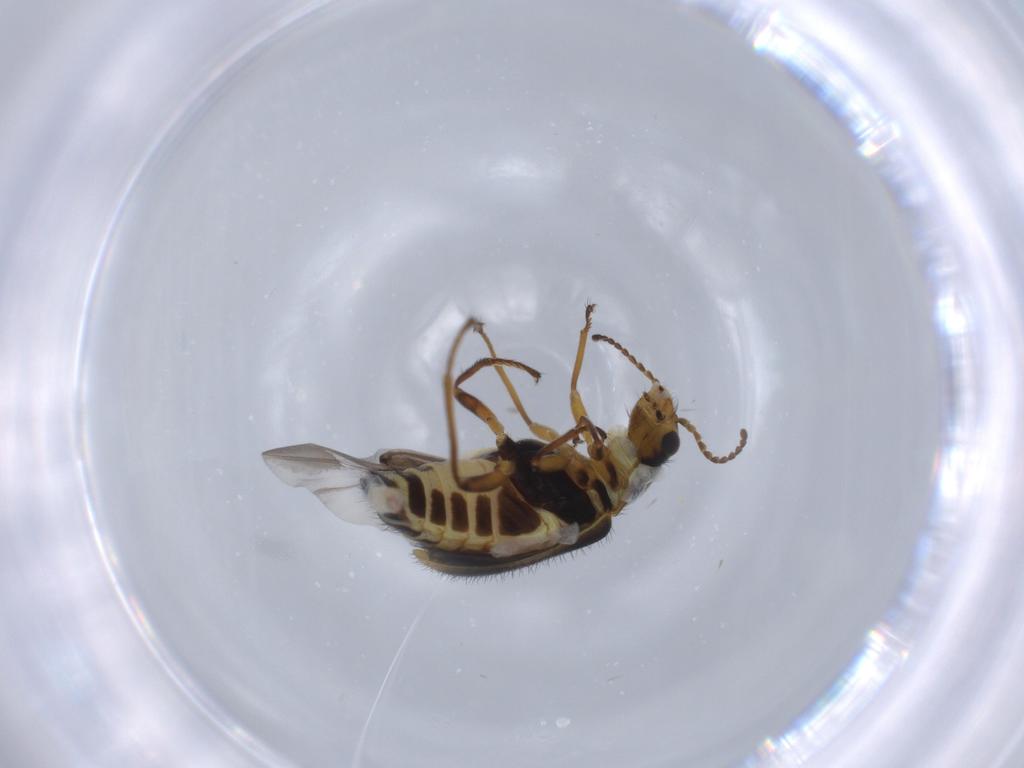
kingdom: Animalia
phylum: Arthropoda
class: Insecta
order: Coleoptera
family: Melyridae
